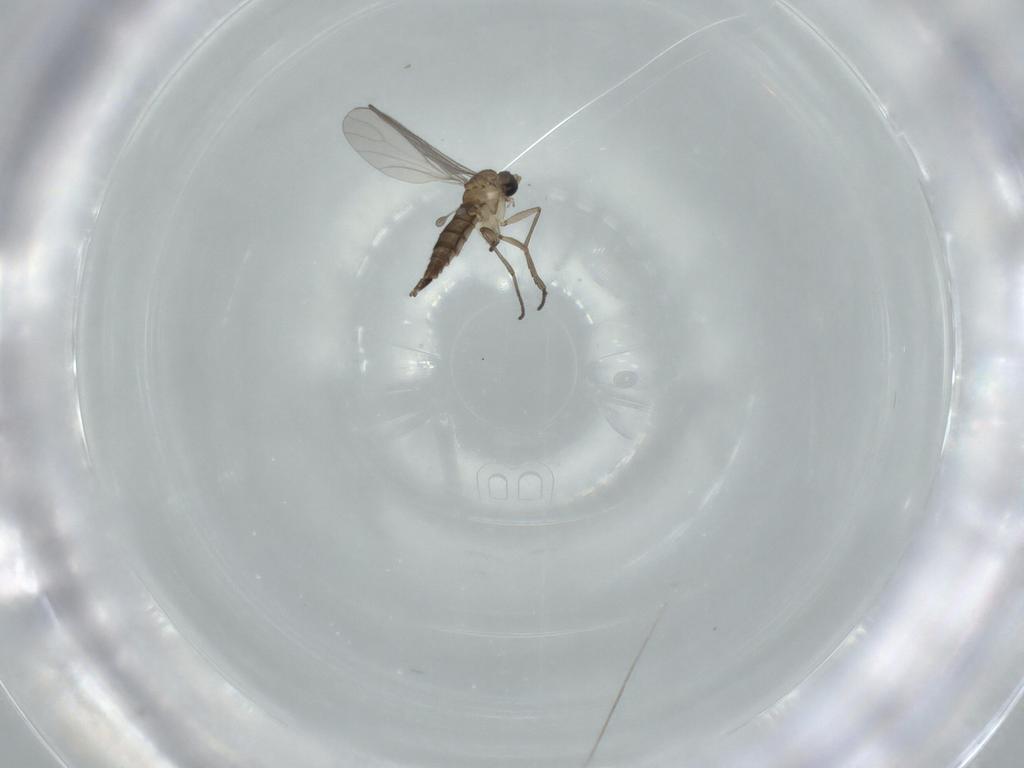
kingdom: Animalia
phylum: Arthropoda
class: Insecta
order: Diptera
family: Sciaridae
